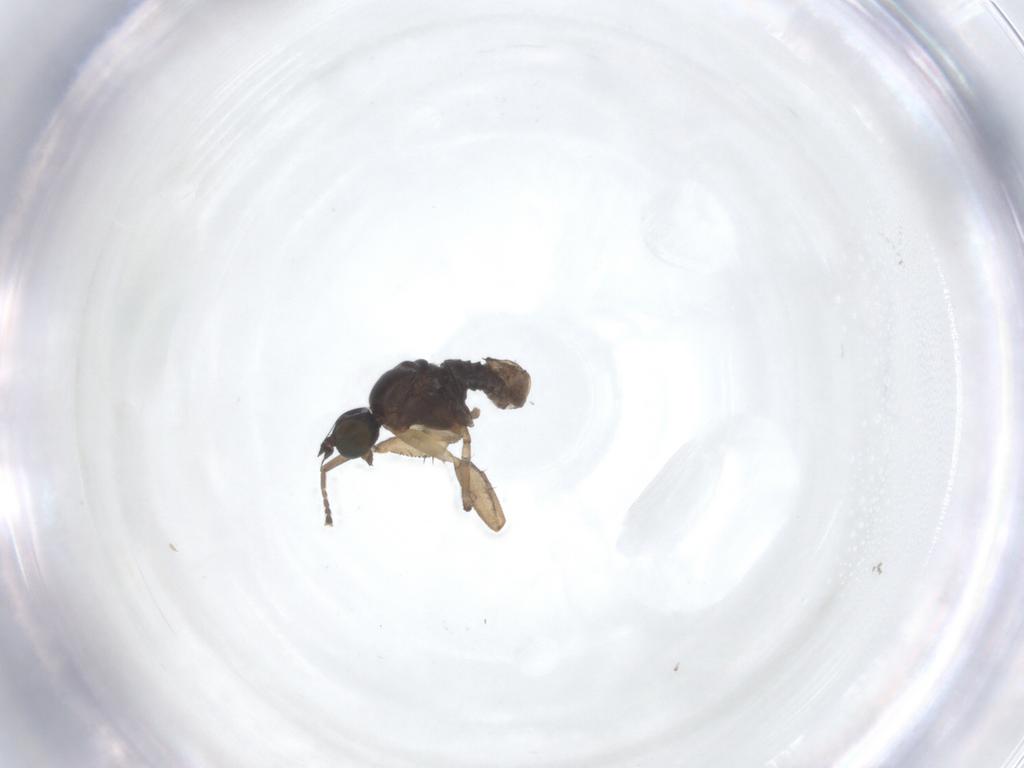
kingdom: Animalia
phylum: Arthropoda
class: Insecta
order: Diptera
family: Empididae
